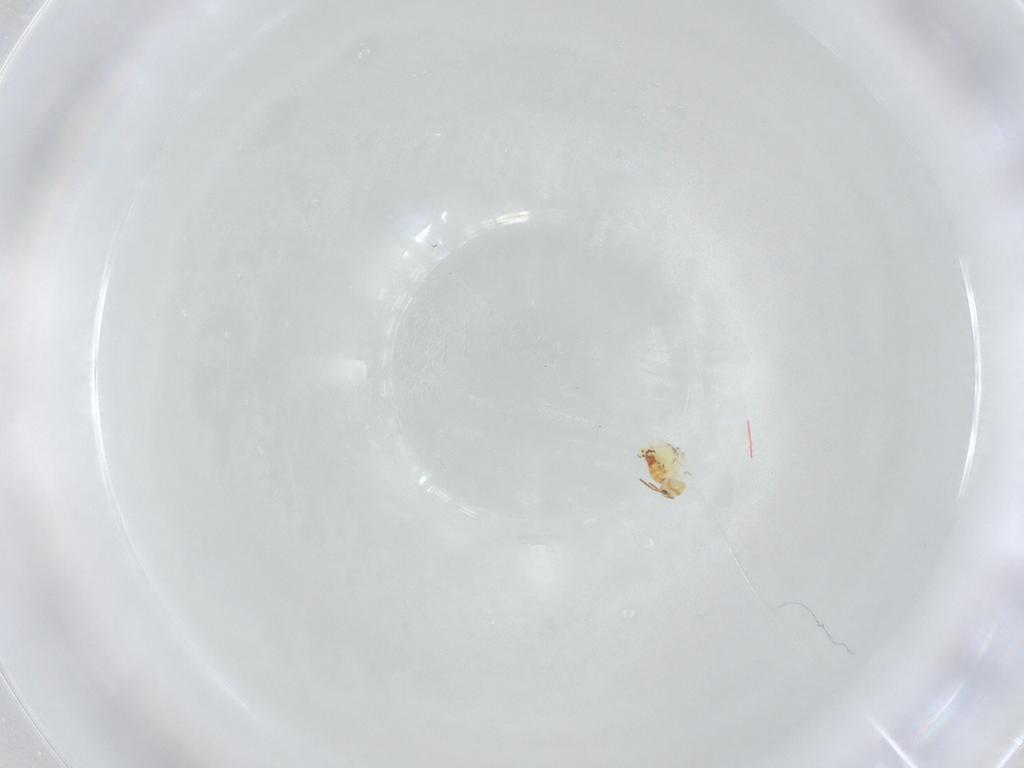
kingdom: Animalia
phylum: Arthropoda
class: Collembola
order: Symphypleona
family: Bourletiellidae
